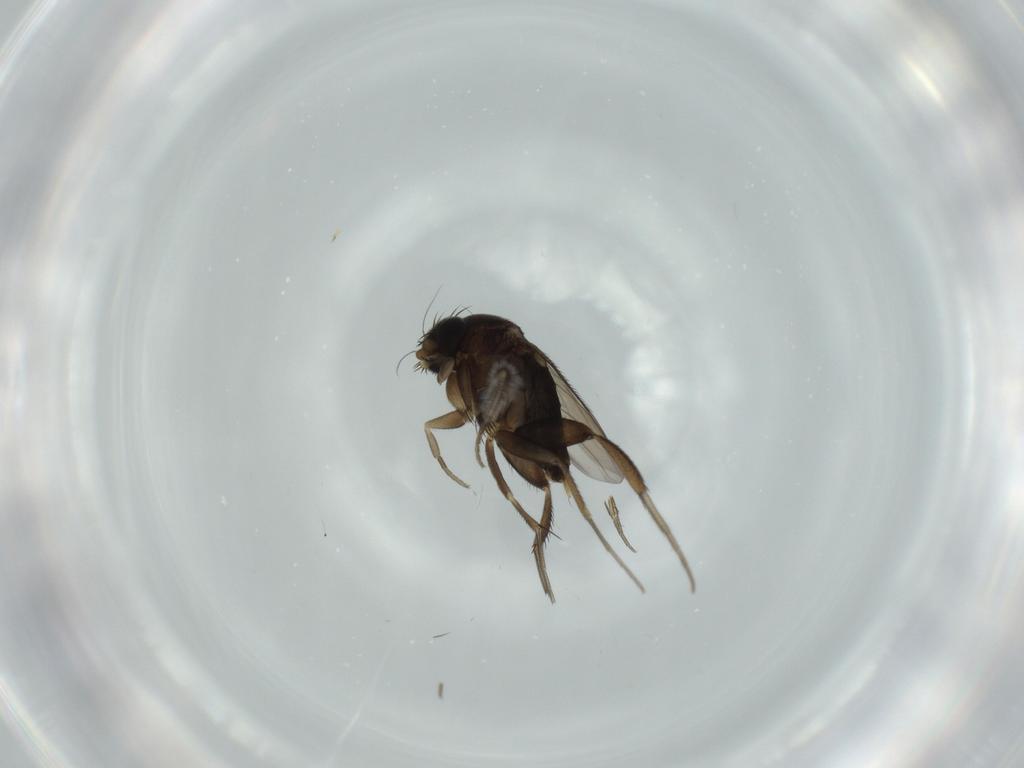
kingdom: Animalia
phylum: Arthropoda
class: Insecta
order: Diptera
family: Phoridae
